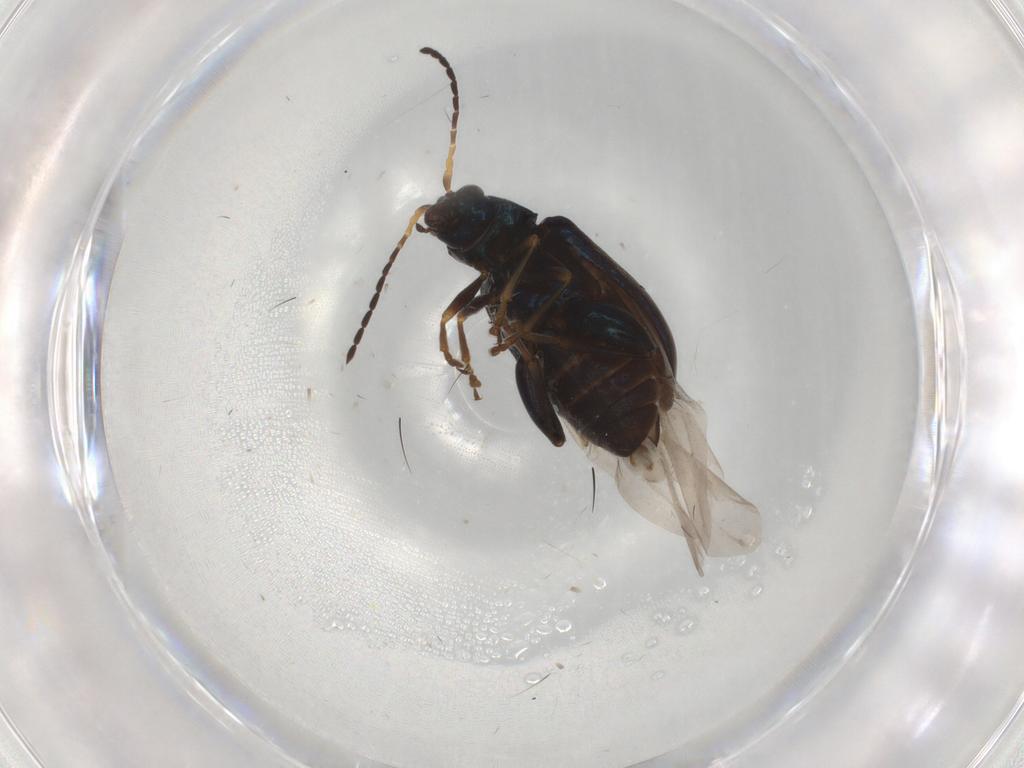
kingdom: Animalia
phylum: Arthropoda
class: Insecta
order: Coleoptera
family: Chrysomelidae
